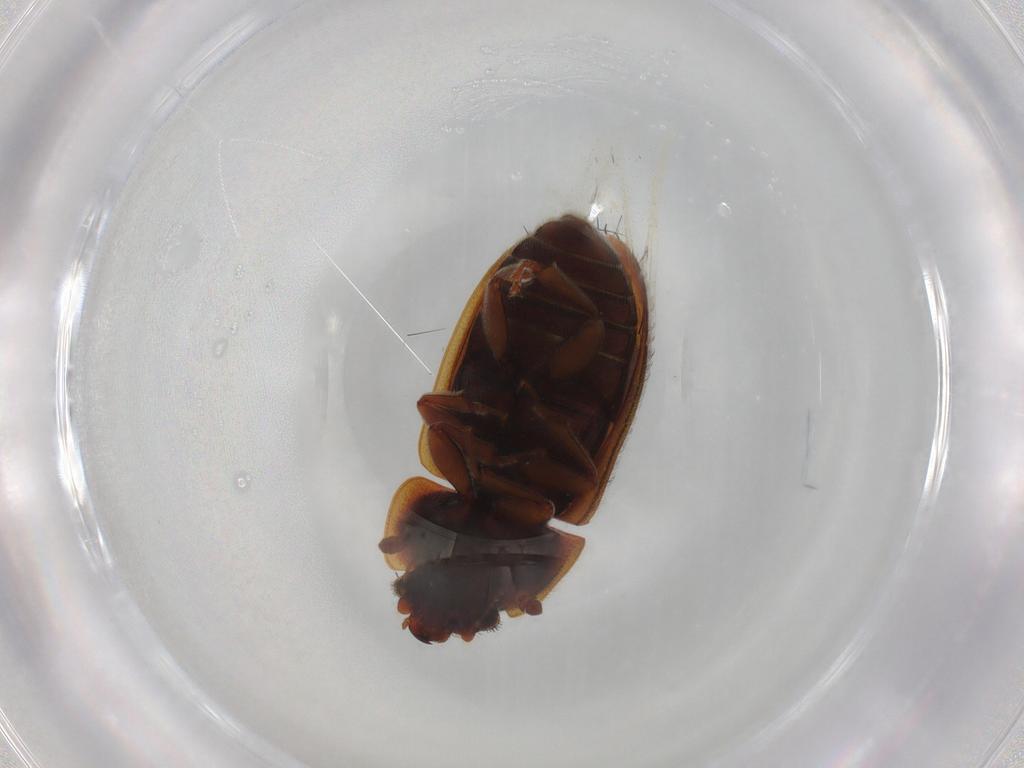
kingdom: Animalia
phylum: Arthropoda
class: Insecta
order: Coleoptera
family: Nitidulidae
